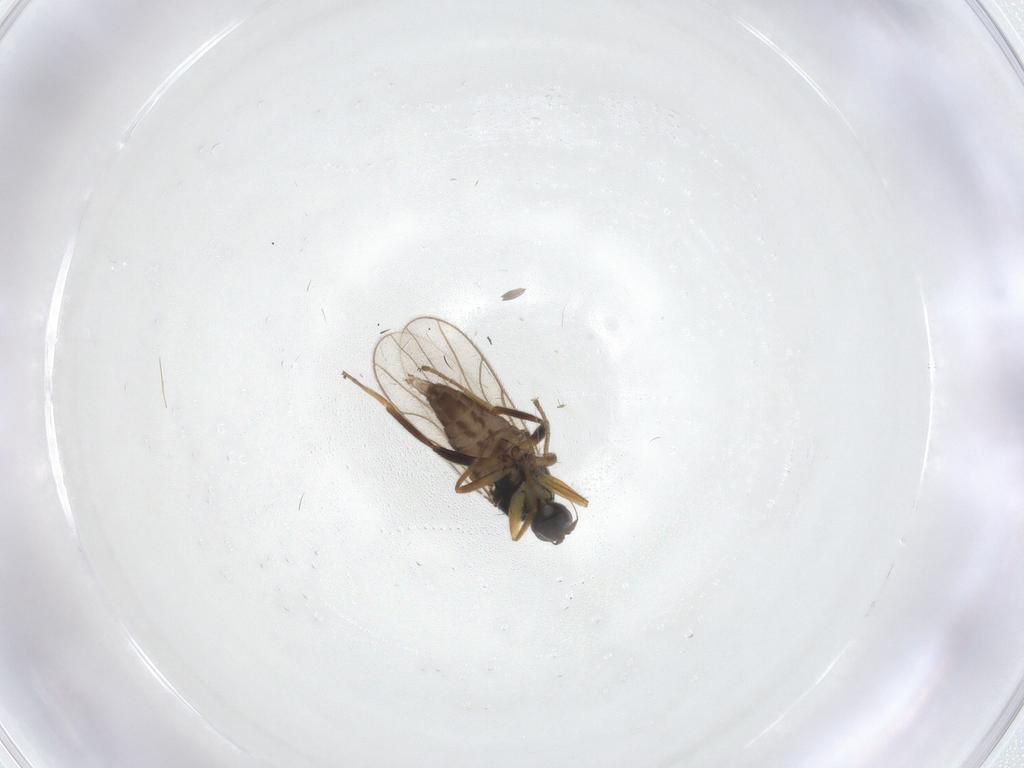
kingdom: Animalia
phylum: Arthropoda
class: Insecta
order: Diptera
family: Hybotidae
